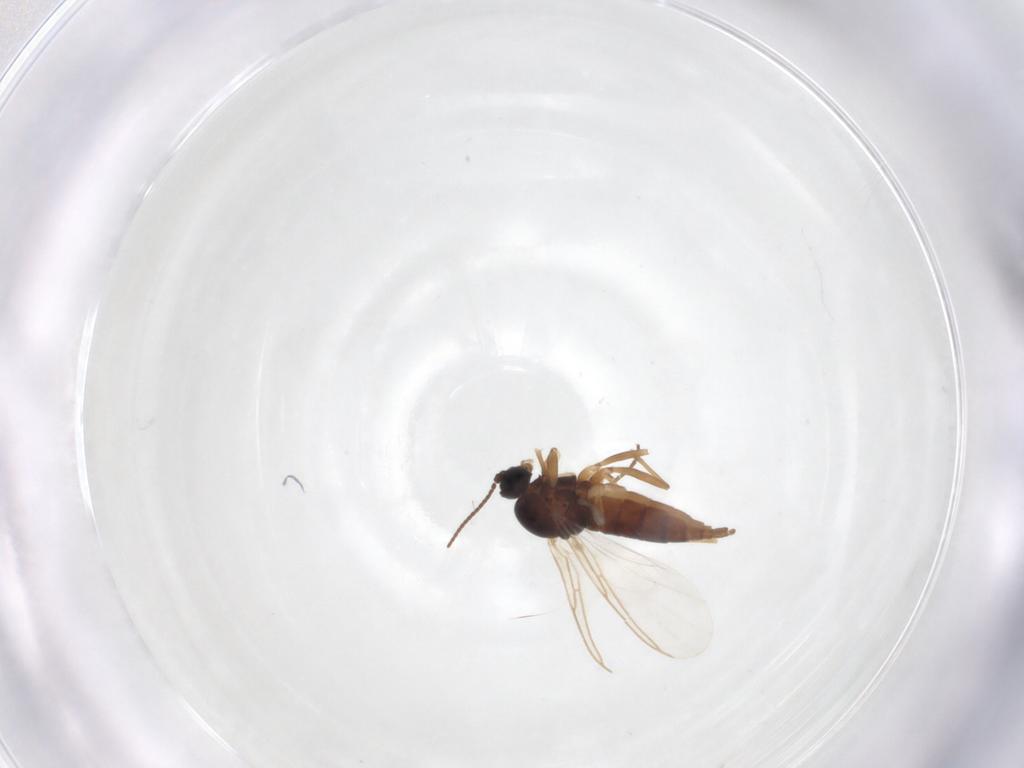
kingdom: Animalia
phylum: Arthropoda
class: Insecta
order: Diptera
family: Sciaridae
